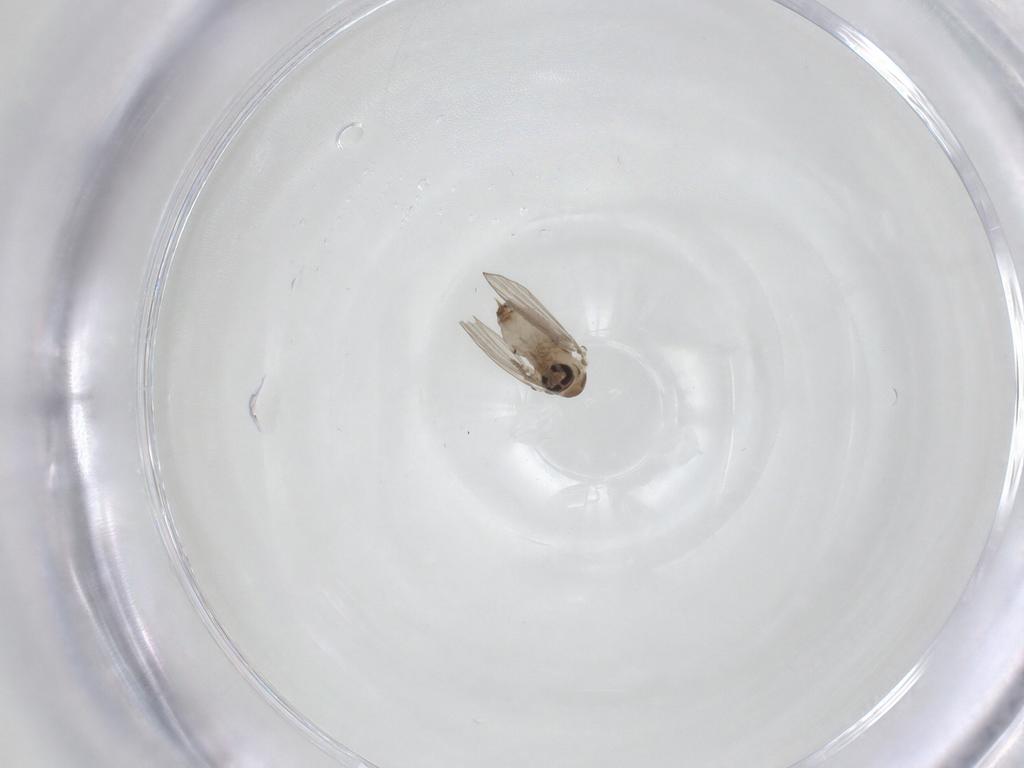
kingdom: Animalia
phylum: Arthropoda
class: Insecta
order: Diptera
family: Psychodidae
